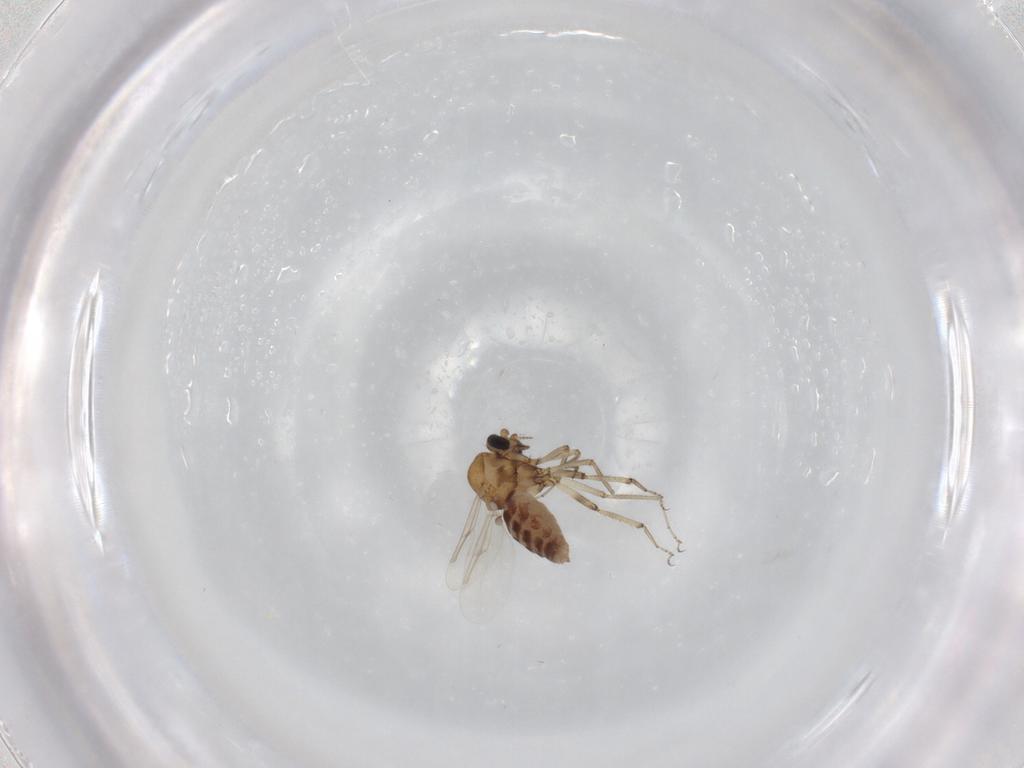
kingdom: Animalia
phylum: Arthropoda
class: Insecta
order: Diptera
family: Ceratopogonidae
